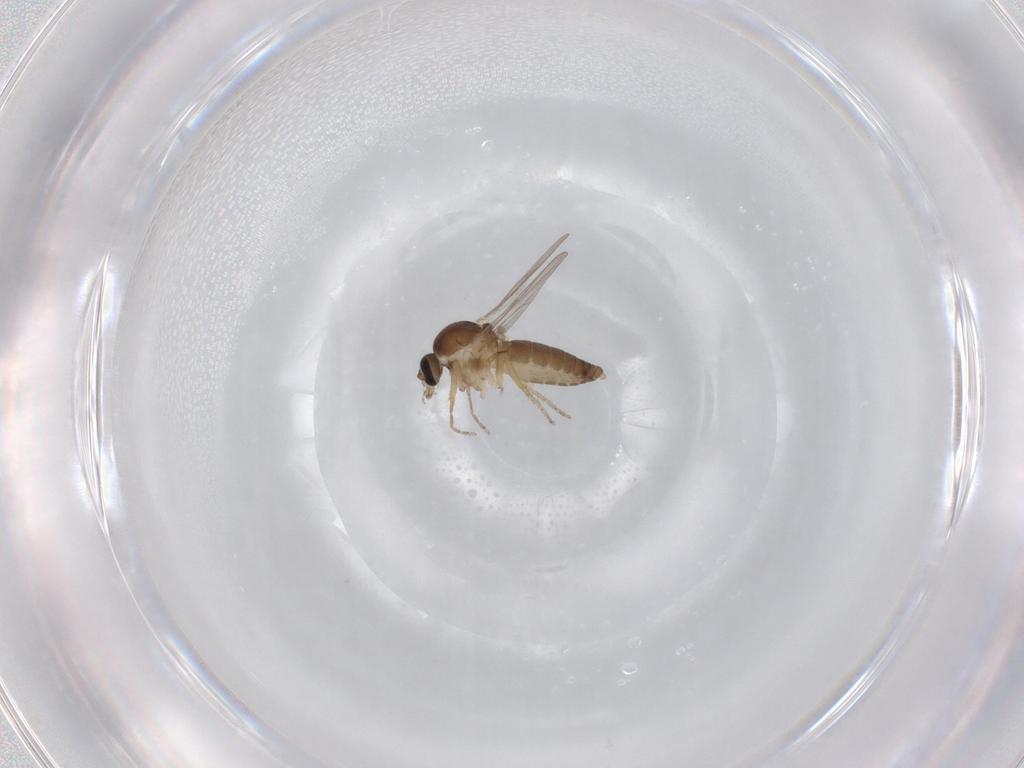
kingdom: Animalia
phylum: Arthropoda
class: Insecta
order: Diptera
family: Ceratopogonidae
